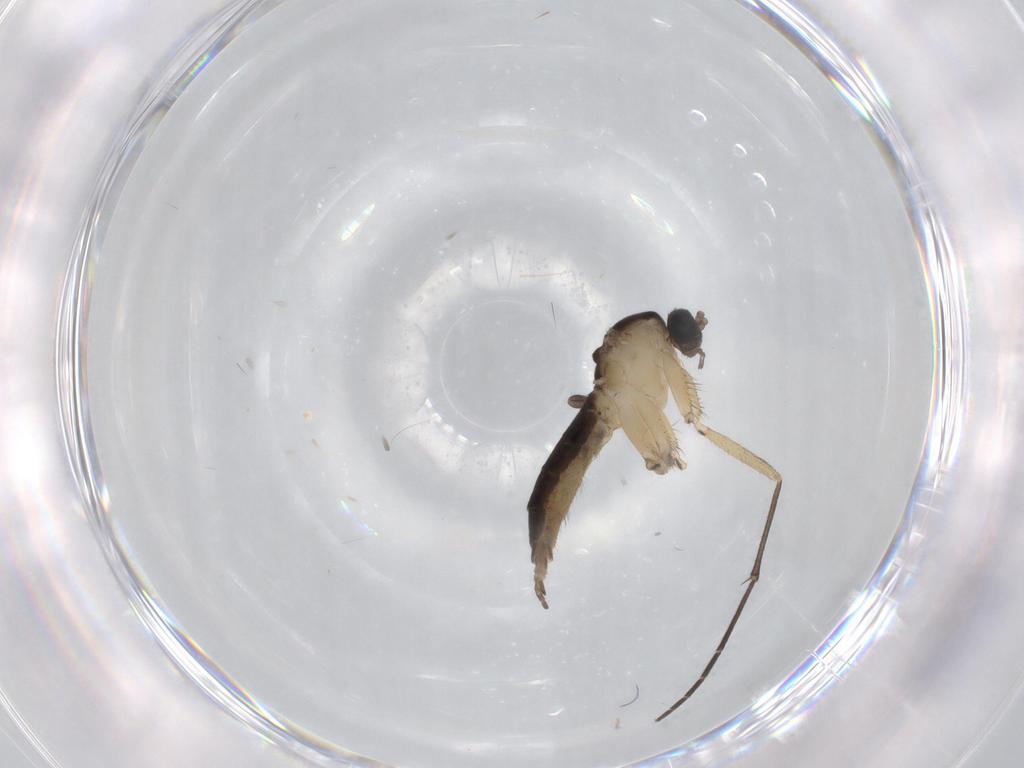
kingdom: Animalia
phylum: Arthropoda
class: Insecta
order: Diptera
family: Sciaridae
